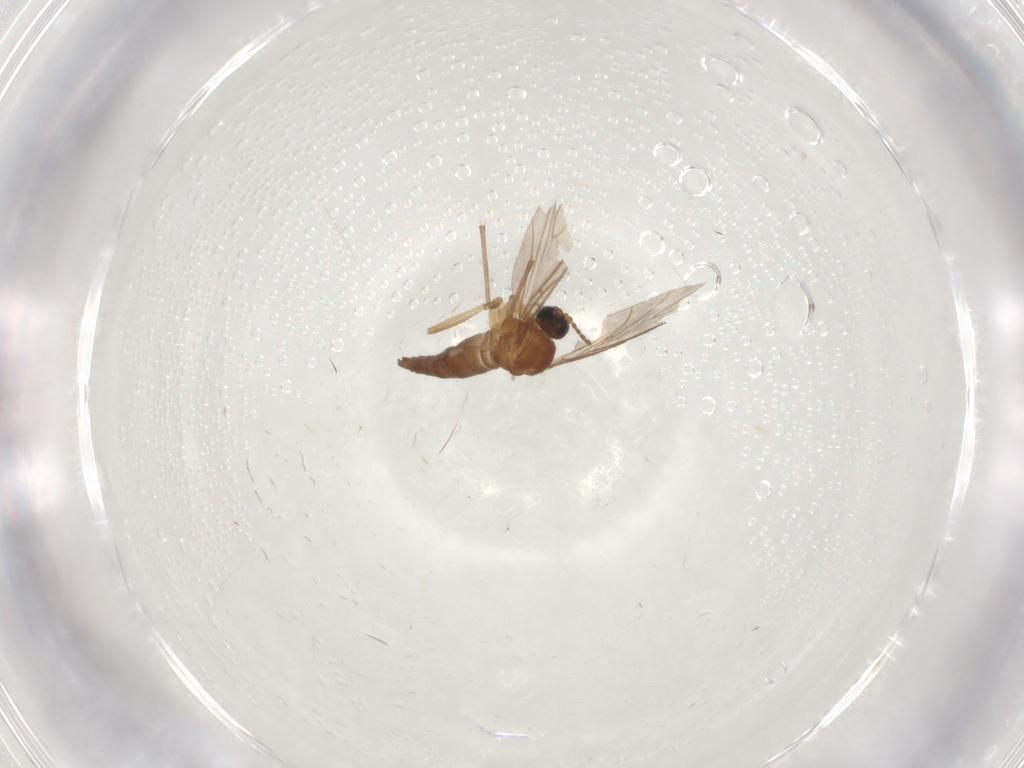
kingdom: Animalia
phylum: Arthropoda
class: Insecta
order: Diptera
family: Sciaridae
